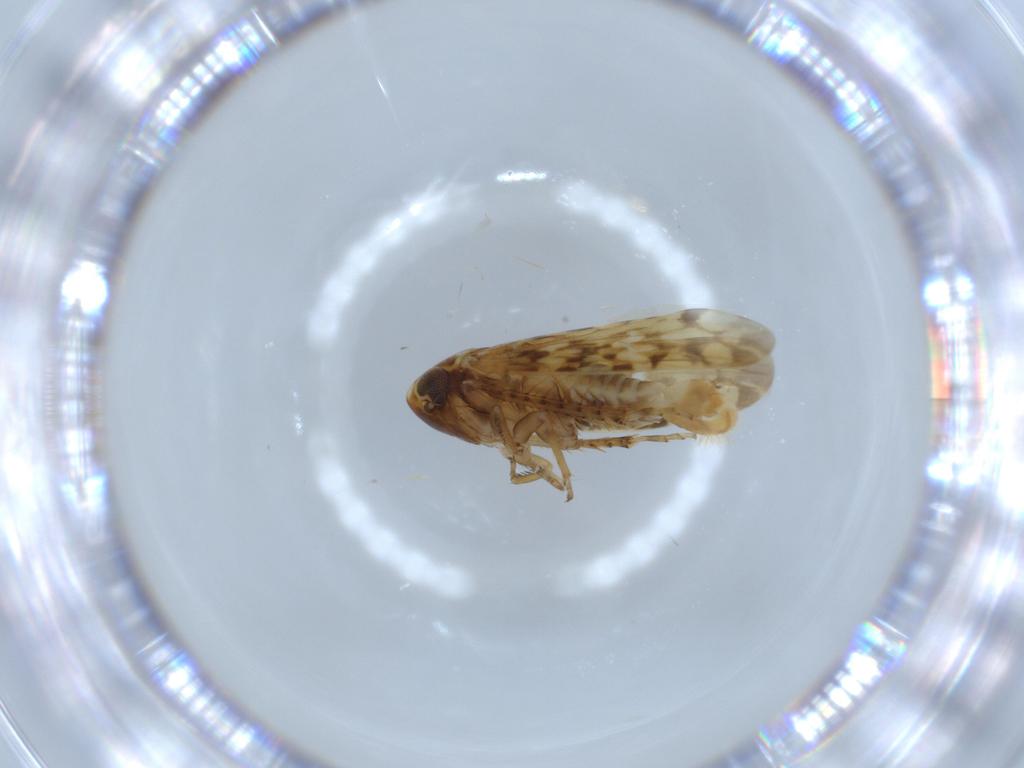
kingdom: Animalia
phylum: Arthropoda
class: Insecta
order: Hemiptera
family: Cicadellidae
